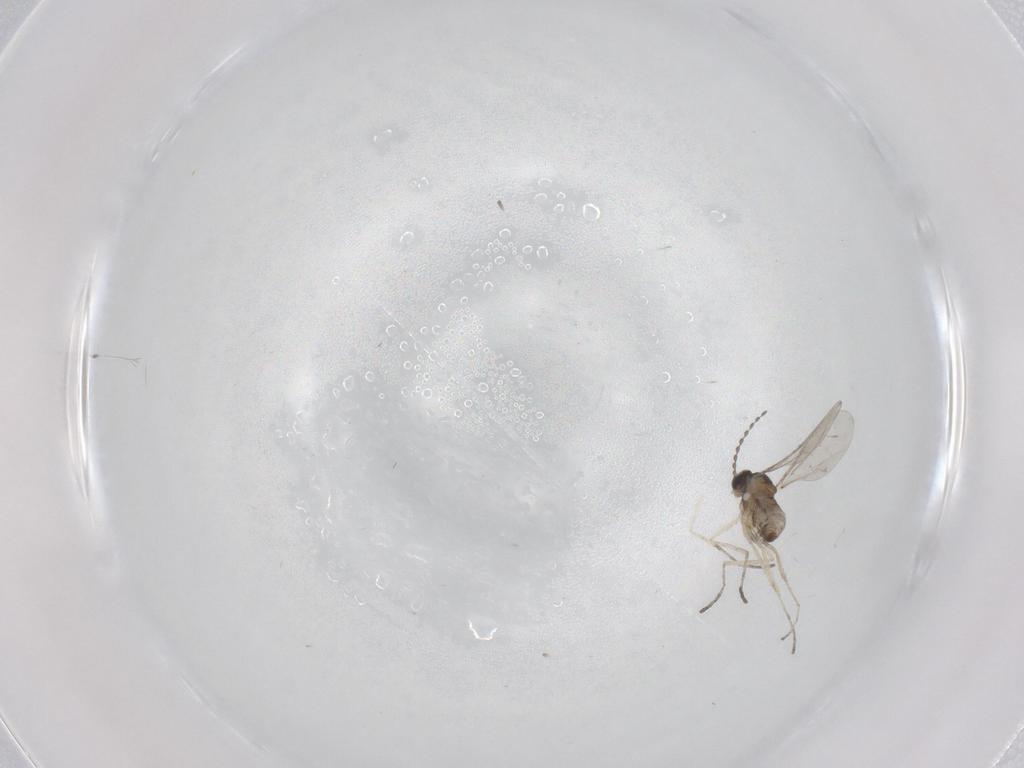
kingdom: Animalia
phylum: Arthropoda
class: Insecta
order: Diptera
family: Cecidomyiidae
